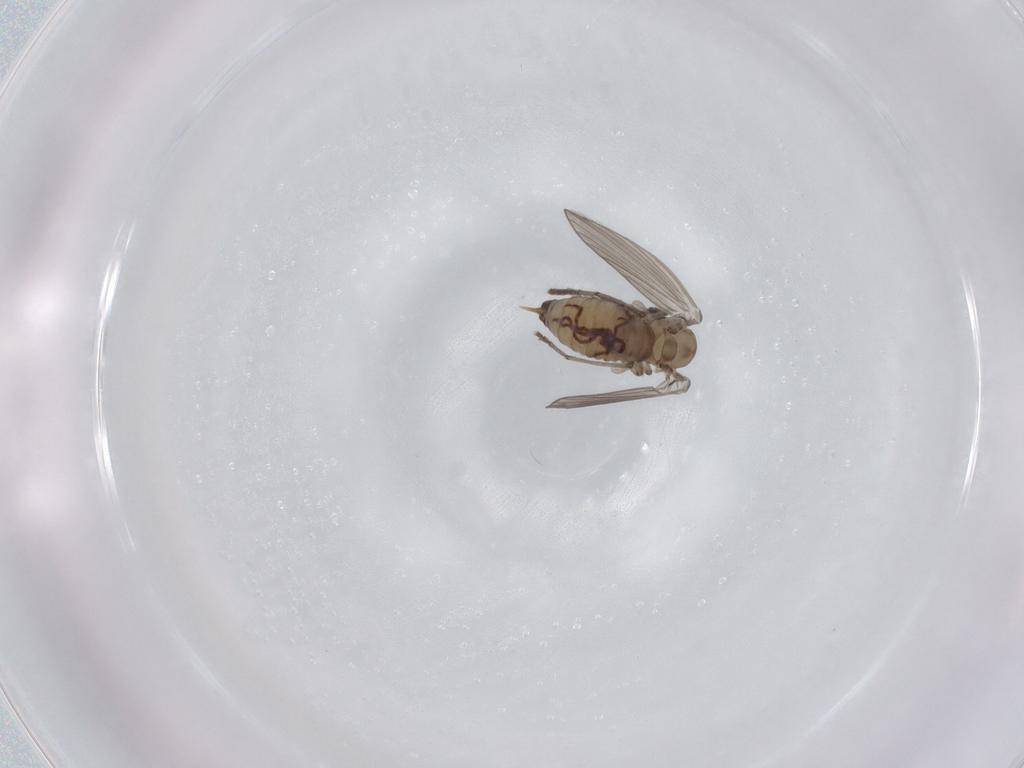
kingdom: Animalia
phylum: Arthropoda
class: Insecta
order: Diptera
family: Psychodidae
